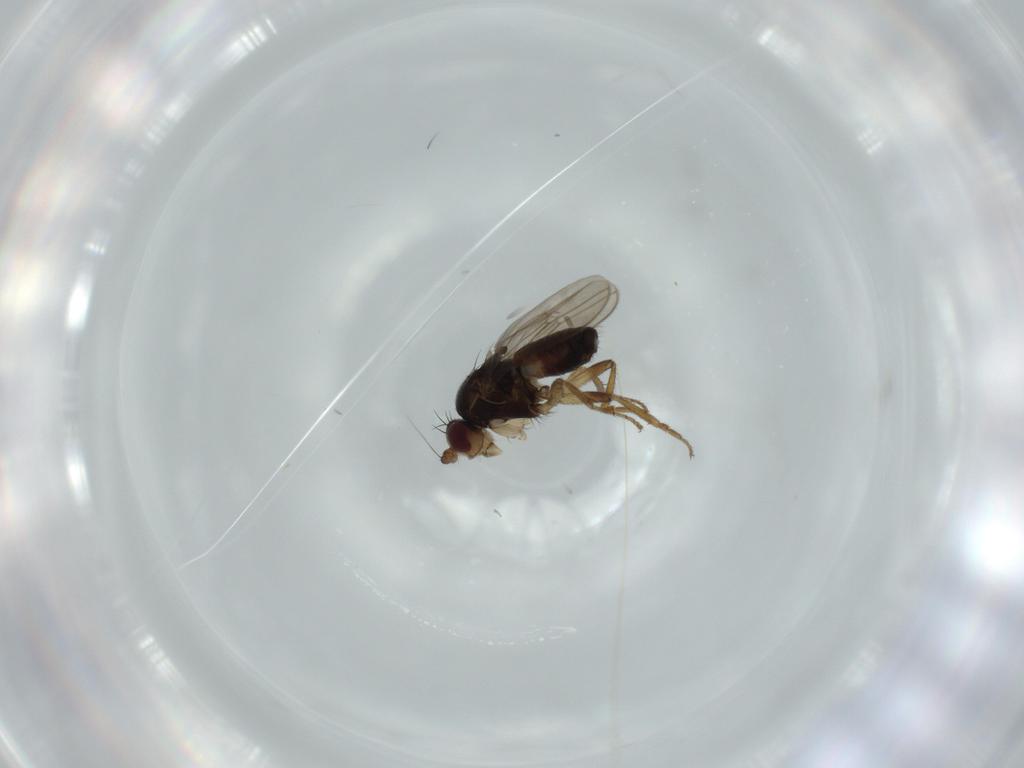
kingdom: Animalia
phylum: Arthropoda
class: Insecta
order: Diptera
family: Sphaeroceridae
